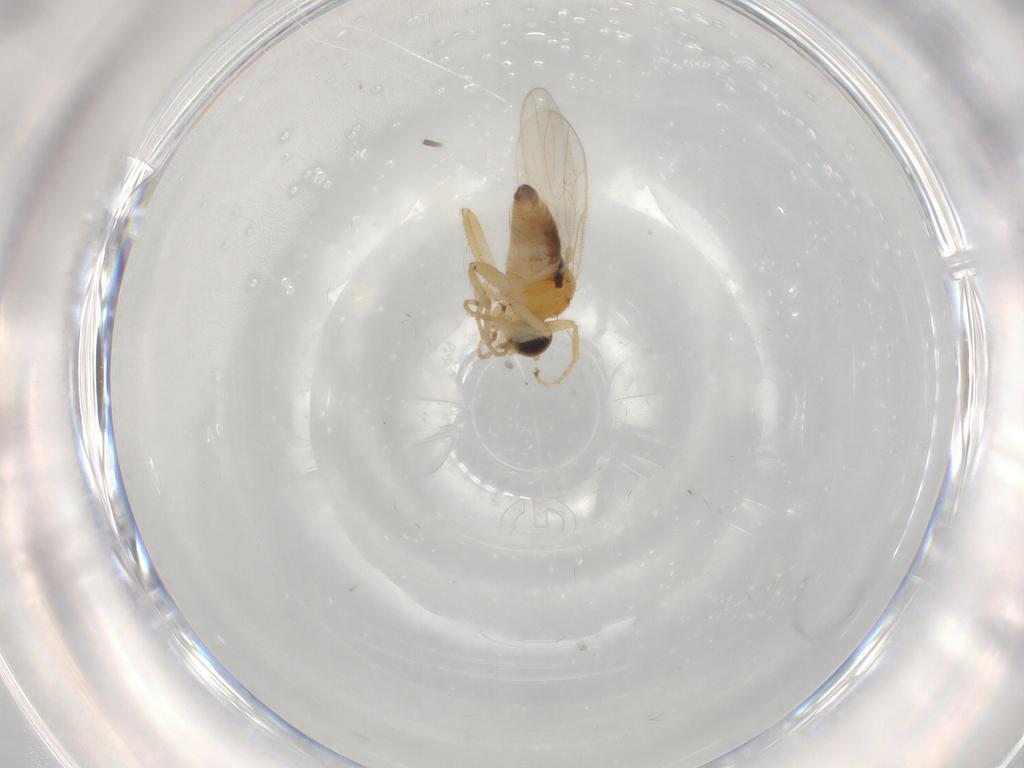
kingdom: Animalia
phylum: Arthropoda
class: Insecta
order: Diptera
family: Hybotidae
